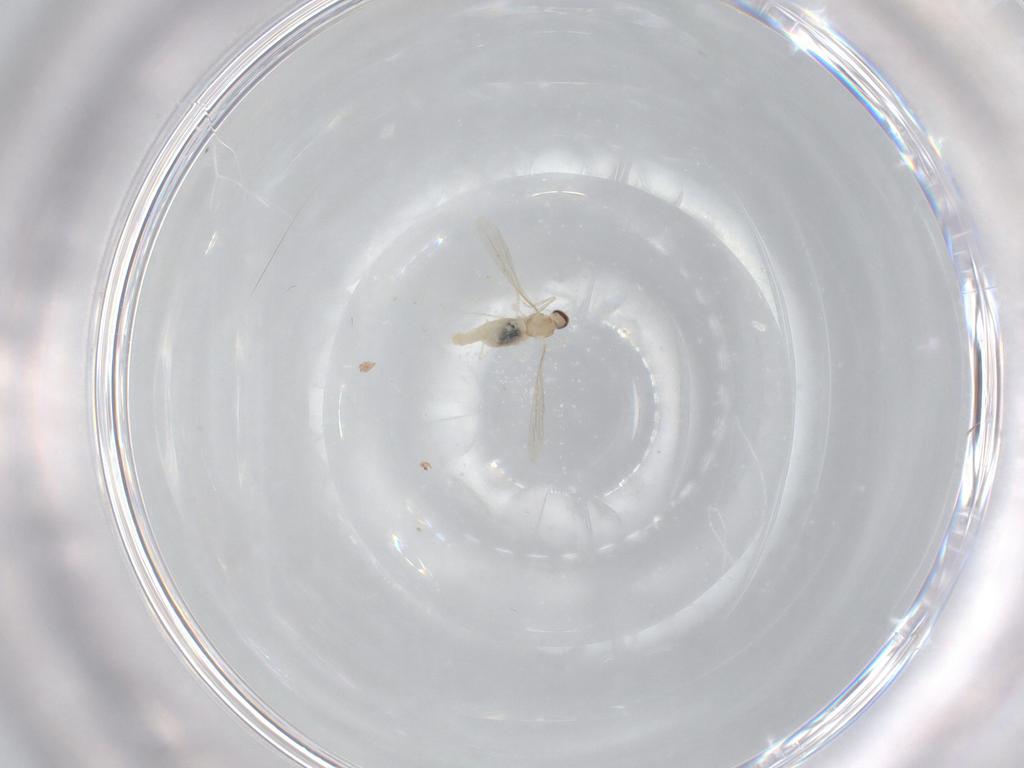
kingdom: Animalia
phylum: Arthropoda
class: Insecta
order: Diptera
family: Cecidomyiidae
